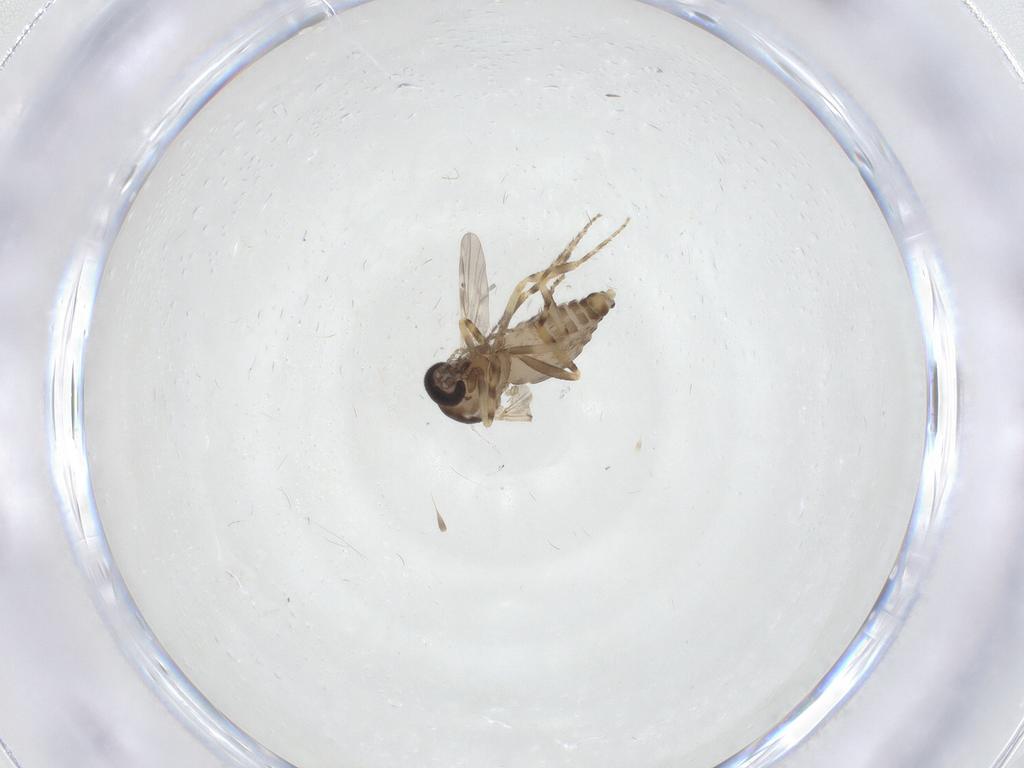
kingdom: Animalia
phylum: Arthropoda
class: Insecta
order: Diptera
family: Ceratopogonidae
